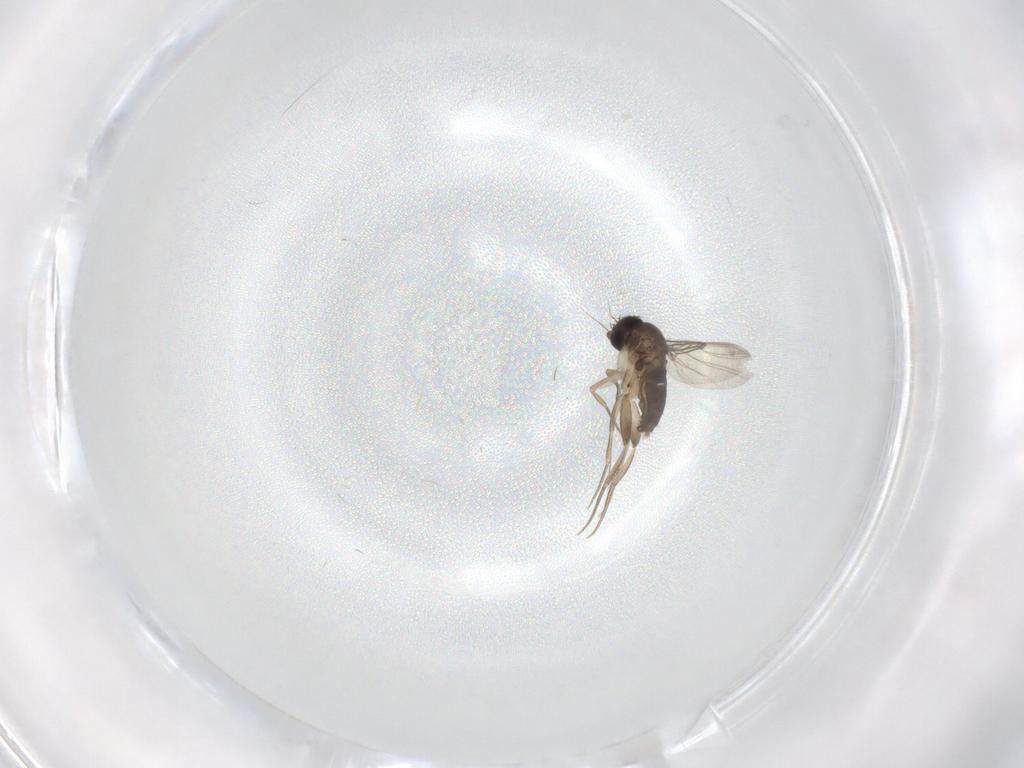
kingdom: Animalia
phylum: Arthropoda
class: Insecta
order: Diptera
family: Phoridae
